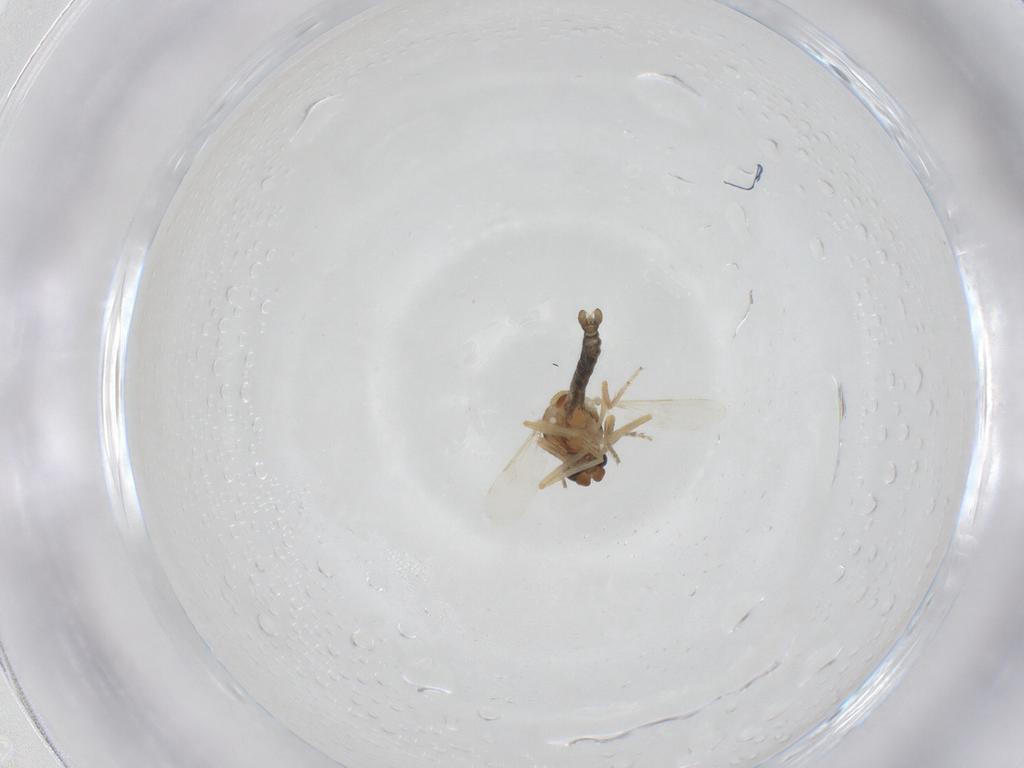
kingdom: Animalia
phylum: Arthropoda
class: Insecta
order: Diptera
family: Ceratopogonidae
